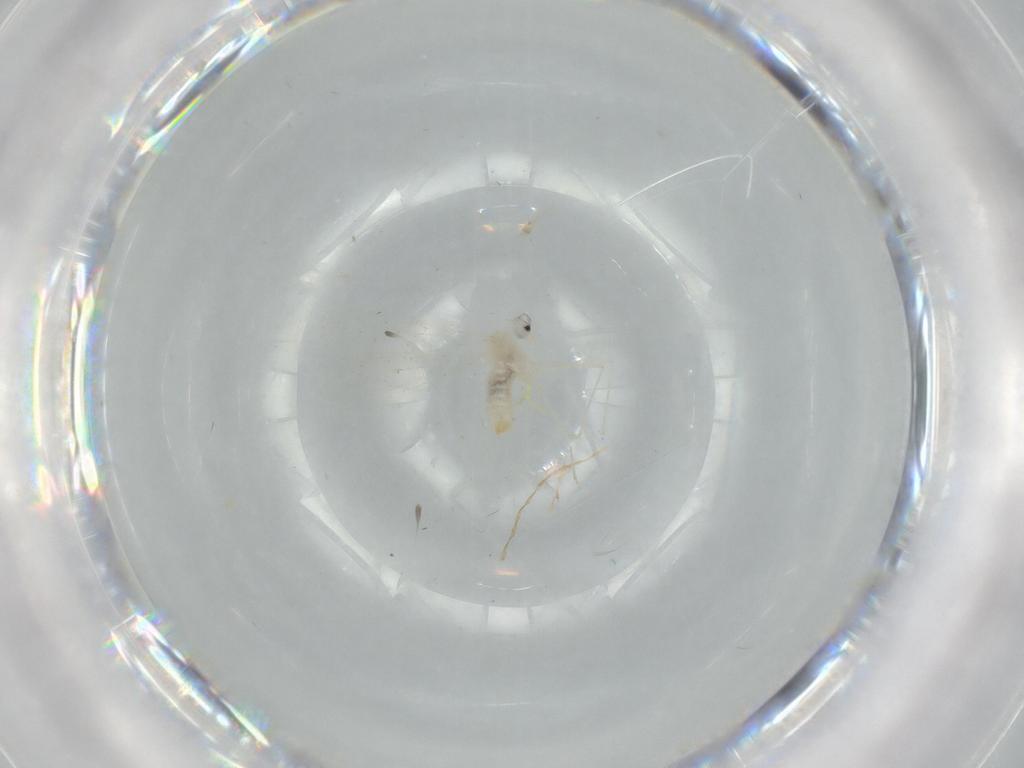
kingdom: Animalia
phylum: Arthropoda
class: Insecta
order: Diptera
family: Cecidomyiidae
